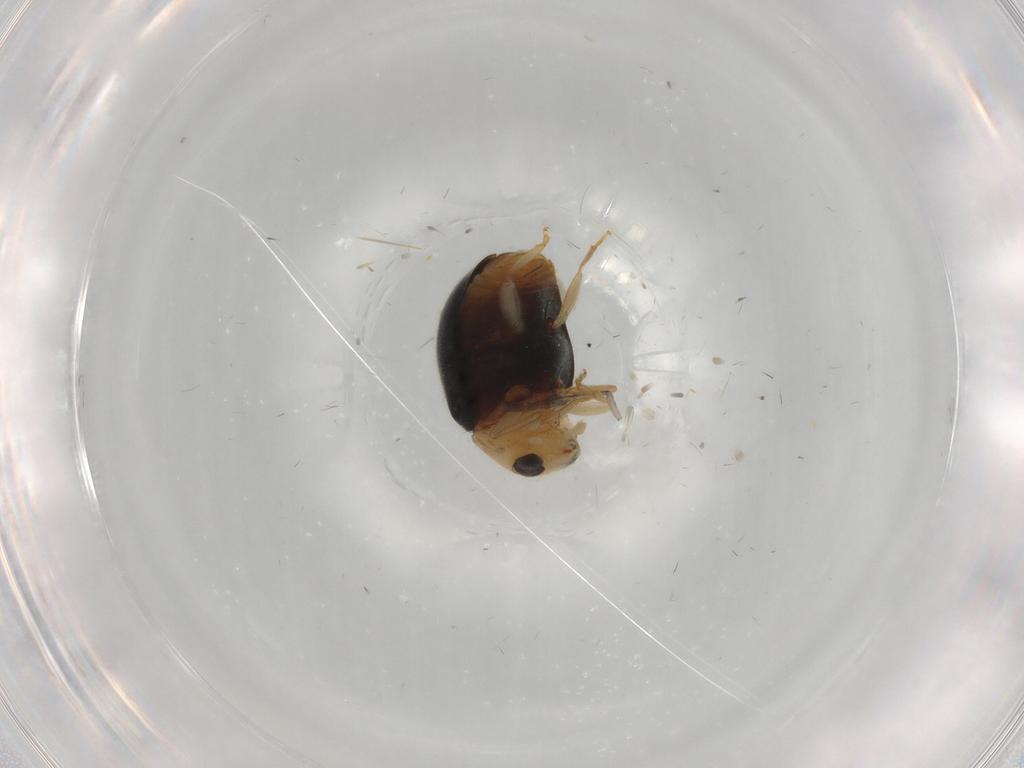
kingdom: Animalia
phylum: Arthropoda
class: Insecta
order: Coleoptera
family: Coccinellidae
